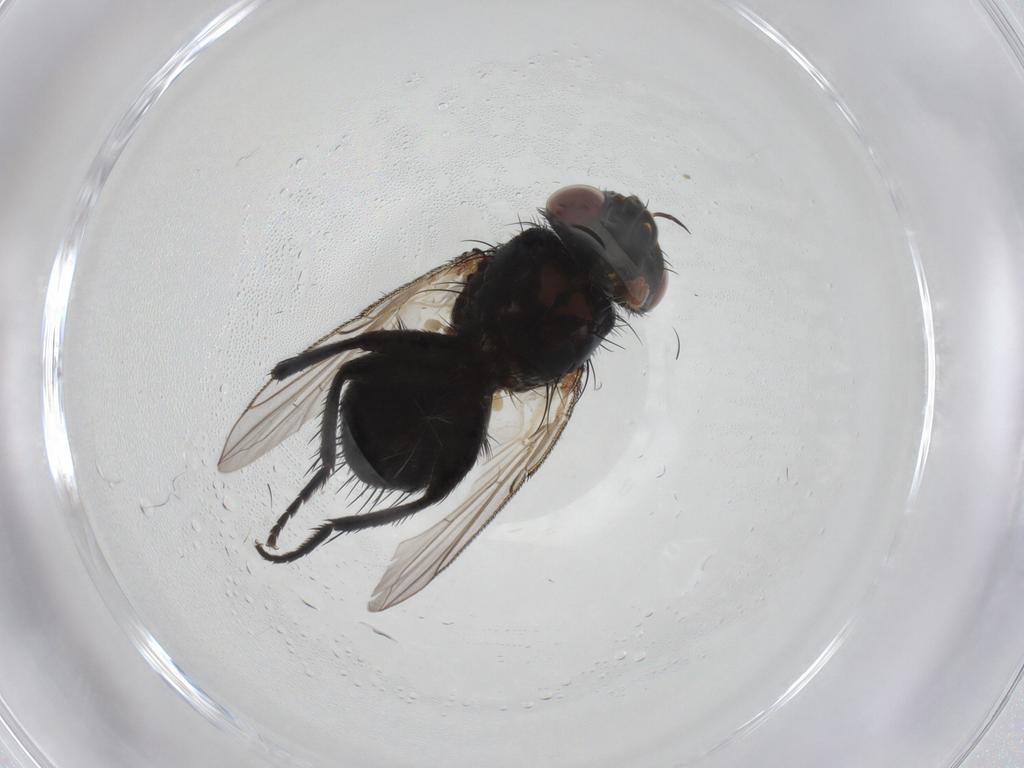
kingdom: Animalia
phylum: Arthropoda
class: Insecta
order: Diptera
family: Tachinidae
